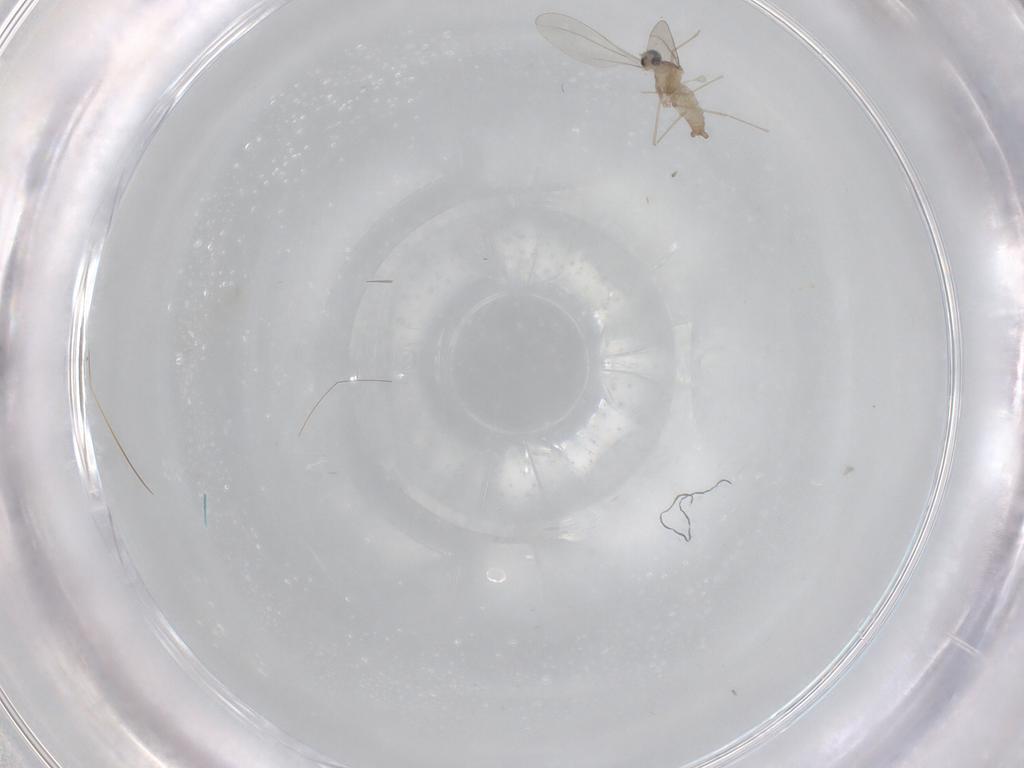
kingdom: Animalia
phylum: Arthropoda
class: Insecta
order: Diptera
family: Cecidomyiidae
